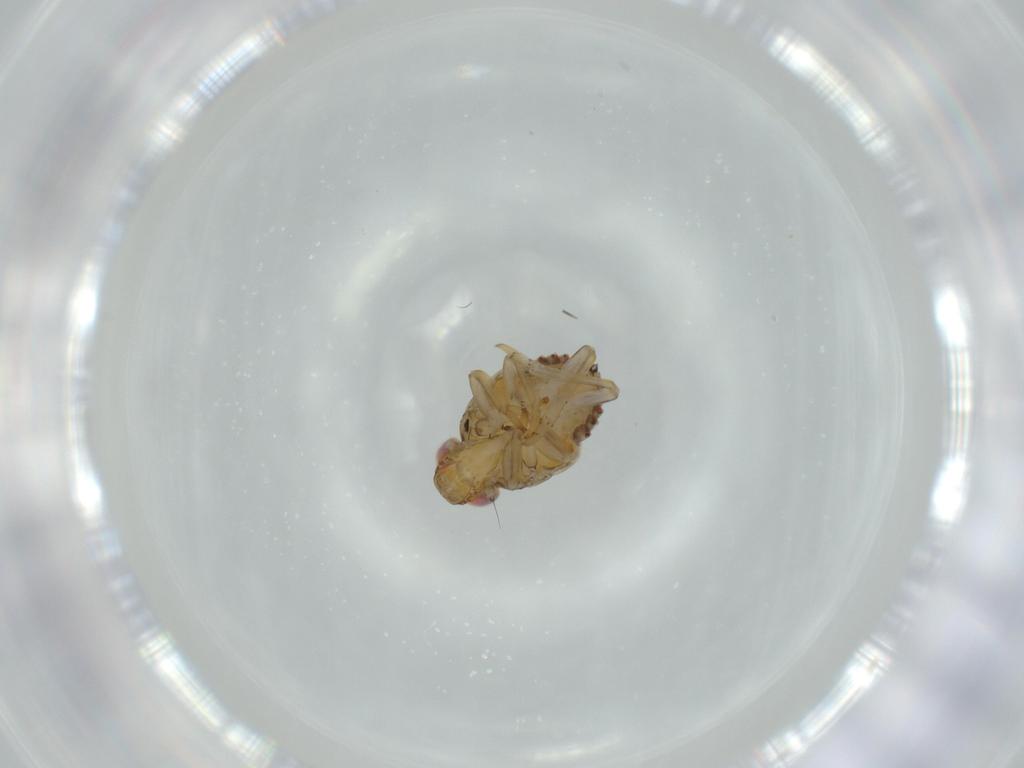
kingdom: Animalia
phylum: Arthropoda
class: Insecta
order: Hemiptera
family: Issidae
